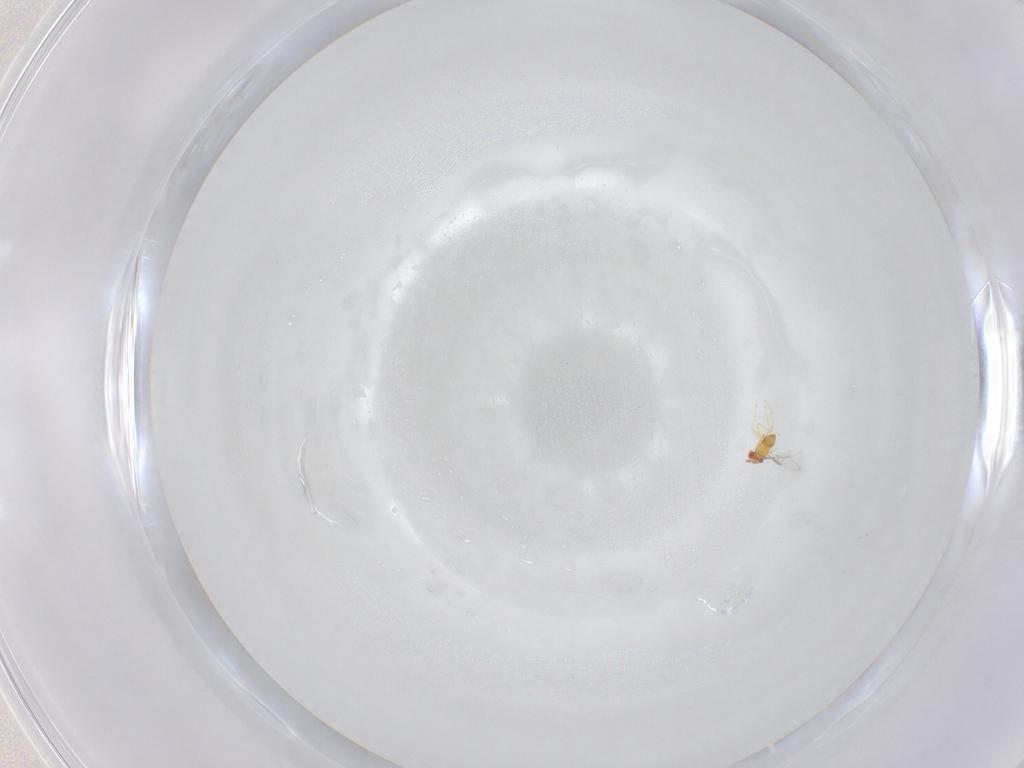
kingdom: Animalia
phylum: Arthropoda
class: Insecta
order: Hymenoptera
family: Trichogrammatidae
